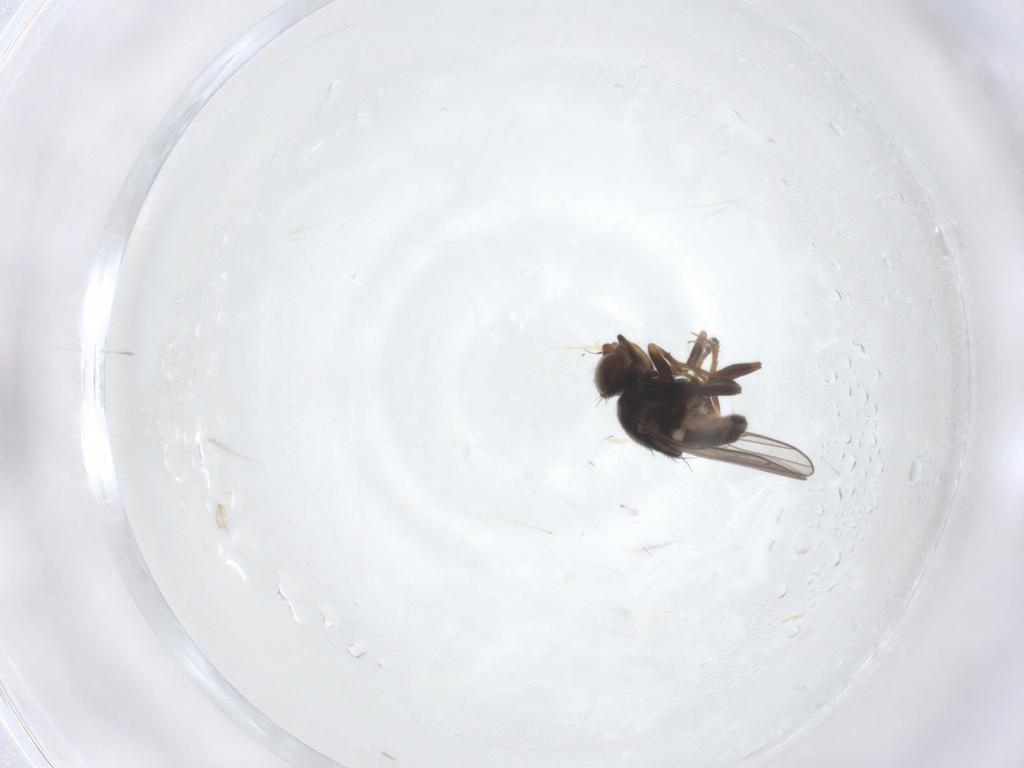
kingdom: Animalia
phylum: Arthropoda
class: Insecta
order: Diptera
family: Chloropidae
